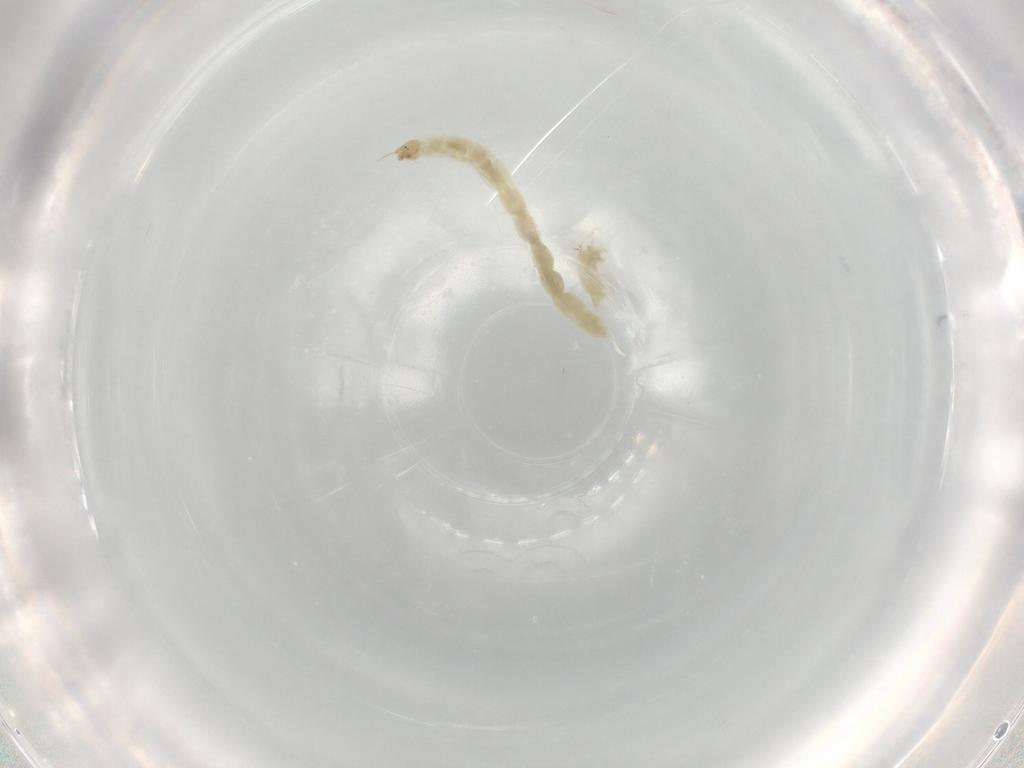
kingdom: Animalia
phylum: Arthropoda
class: Insecta
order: Diptera
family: Chironomidae
